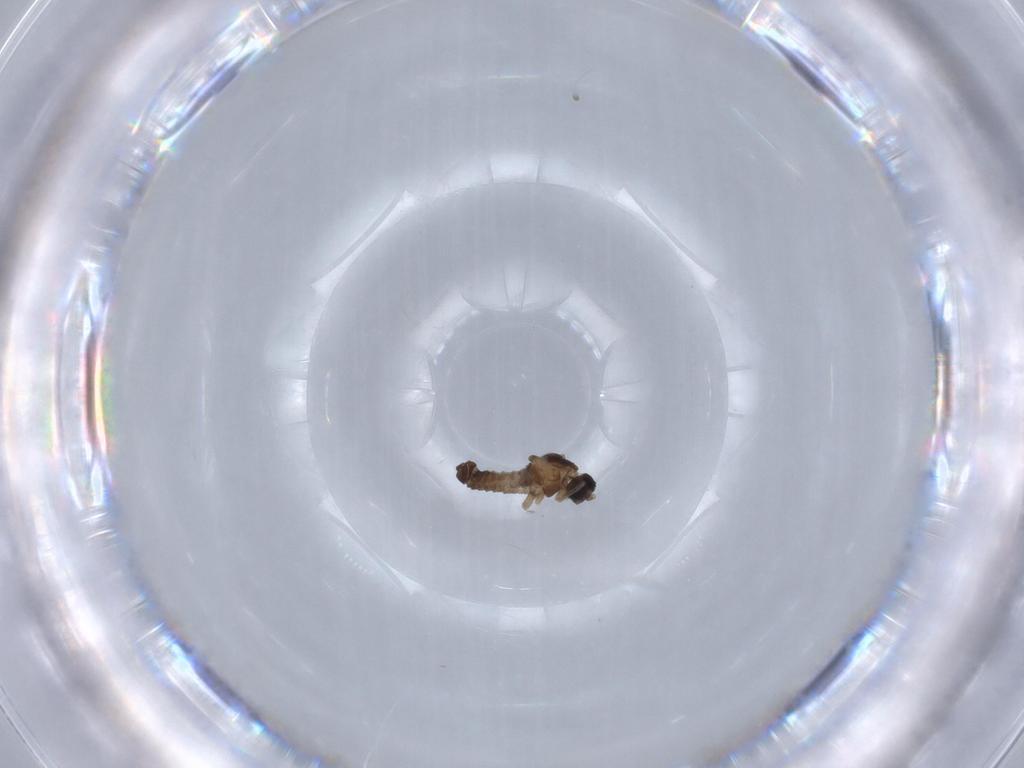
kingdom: Animalia
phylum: Arthropoda
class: Insecta
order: Diptera
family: Cecidomyiidae
